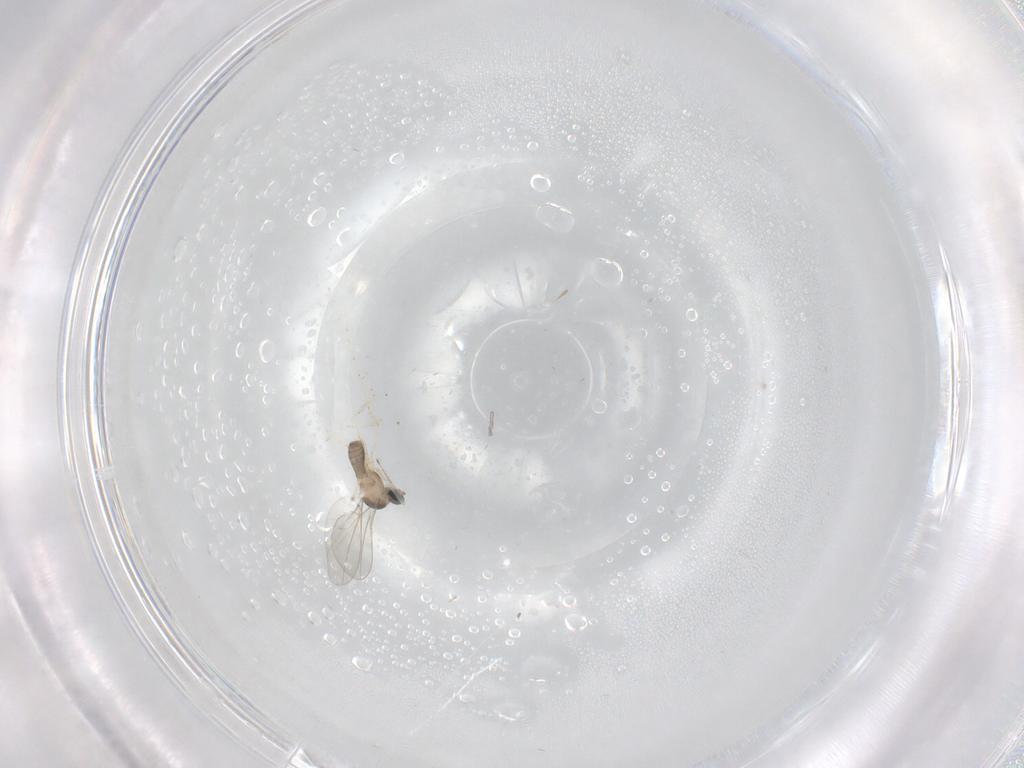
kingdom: Animalia
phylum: Arthropoda
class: Insecta
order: Diptera
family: Cecidomyiidae
